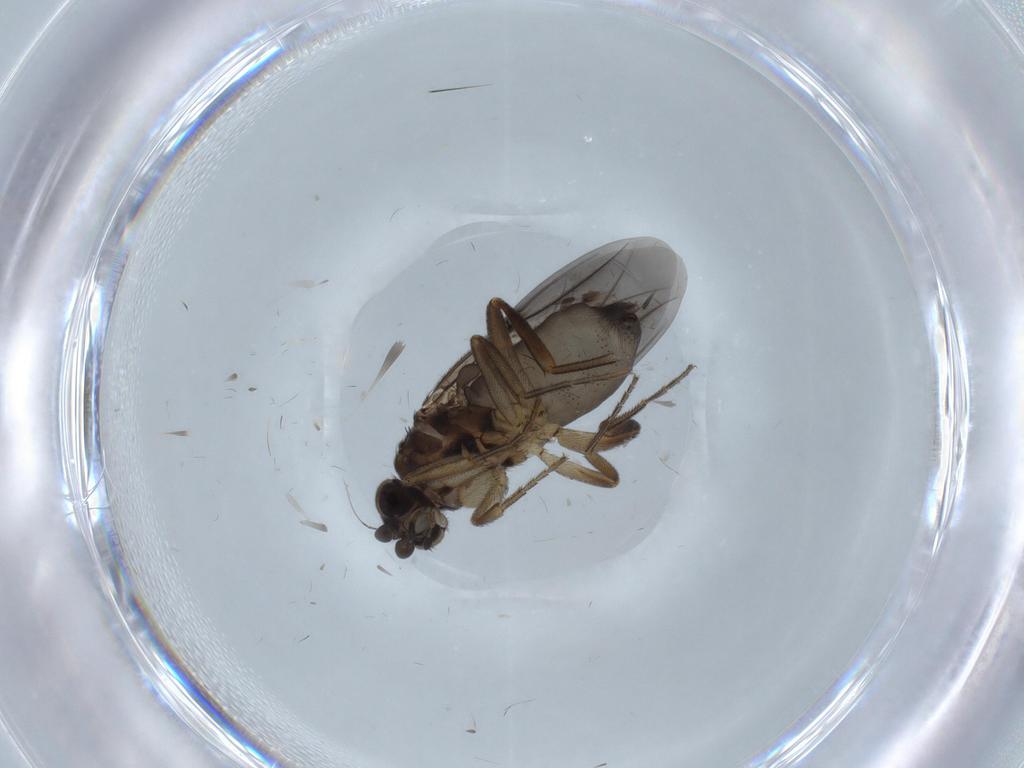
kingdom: Animalia
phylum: Arthropoda
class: Insecta
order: Diptera
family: Phoridae
